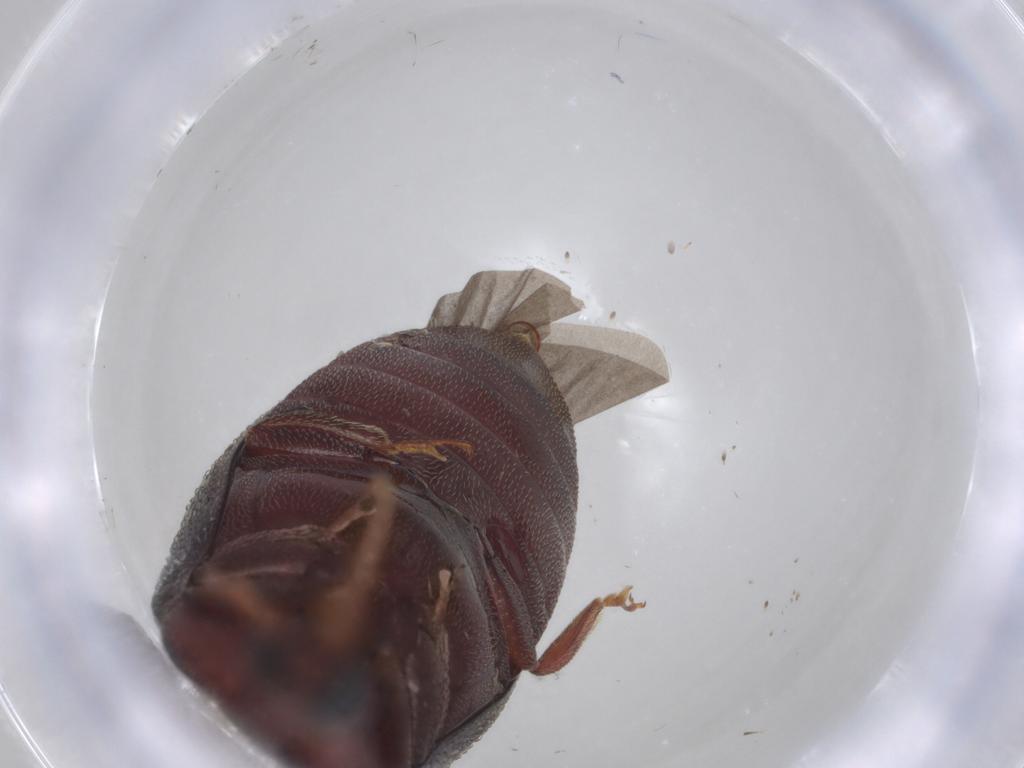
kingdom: Animalia
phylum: Arthropoda
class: Insecta
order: Coleoptera
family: Chelonariidae
